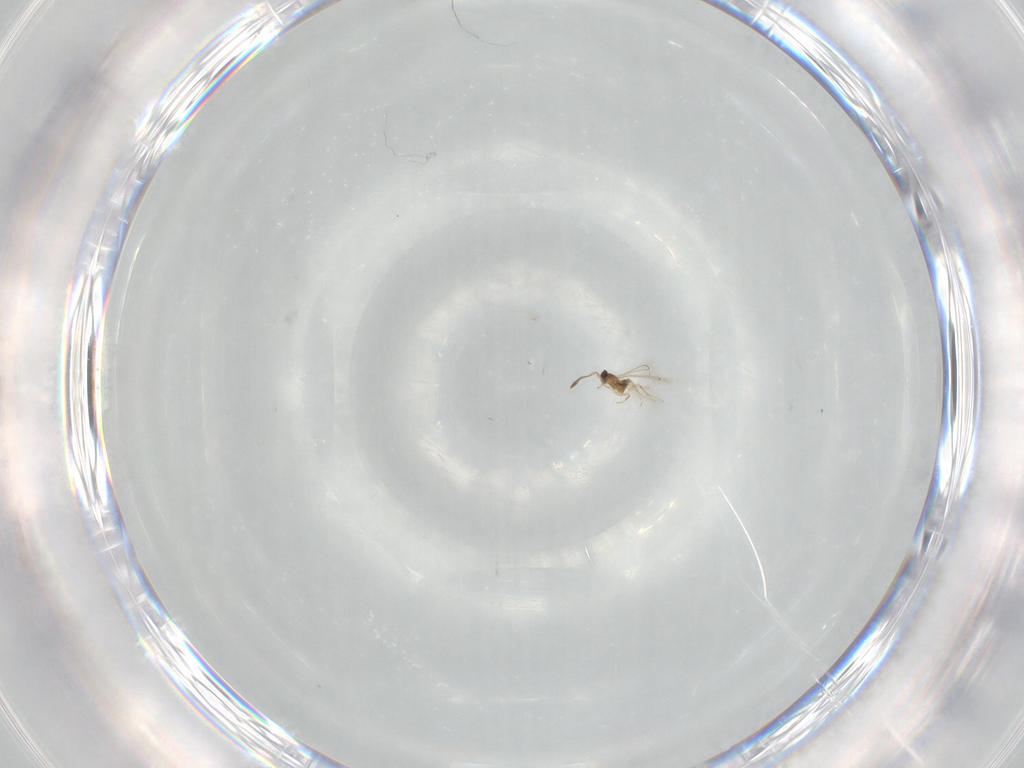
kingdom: Animalia
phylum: Arthropoda
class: Insecta
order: Hymenoptera
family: Mymaridae
